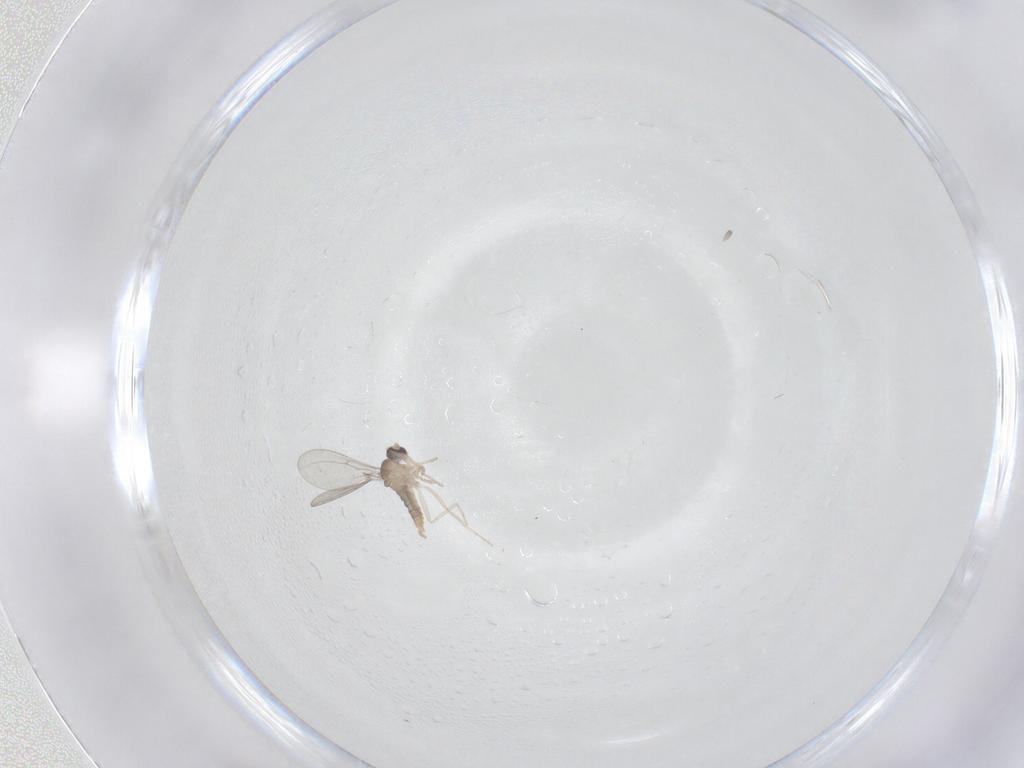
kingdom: Animalia
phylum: Arthropoda
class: Insecta
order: Diptera
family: Cecidomyiidae
